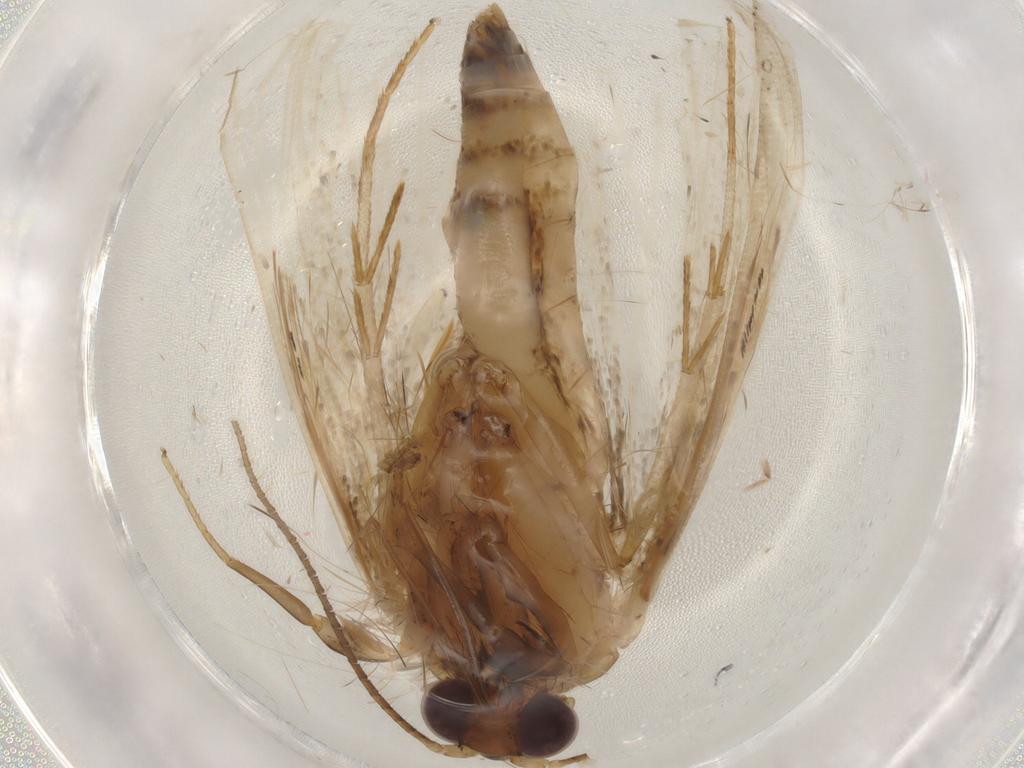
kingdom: Animalia
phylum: Arthropoda
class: Insecta
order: Lepidoptera
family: Erebidae
